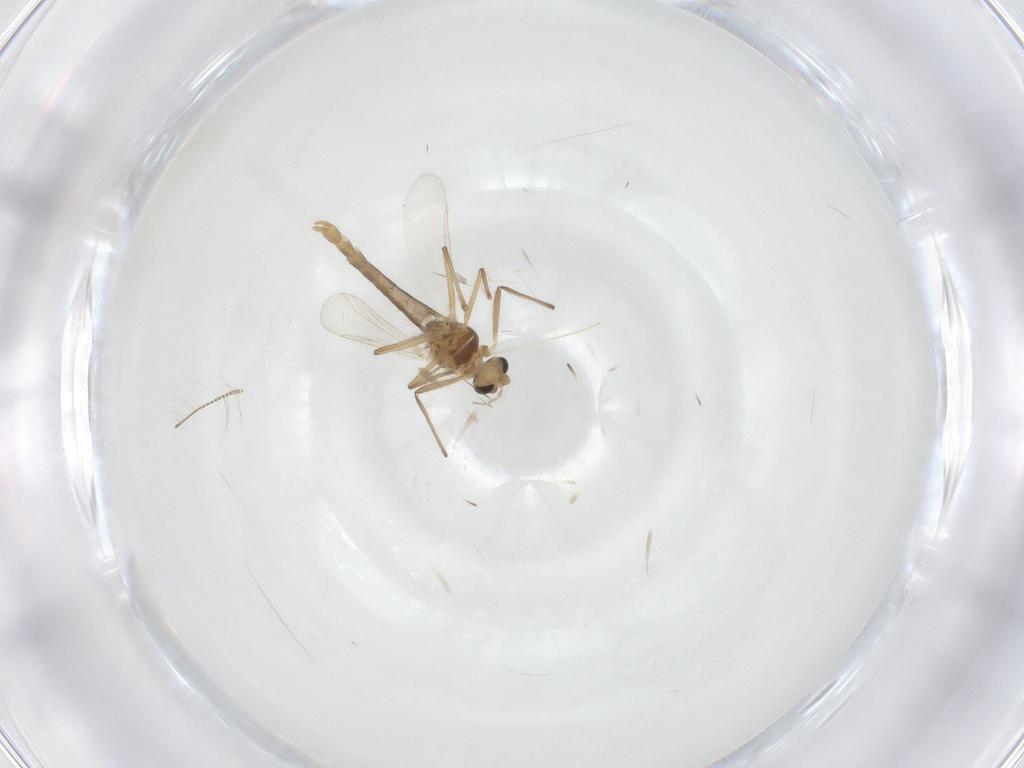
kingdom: Animalia
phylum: Arthropoda
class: Insecta
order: Diptera
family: Chironomidae
